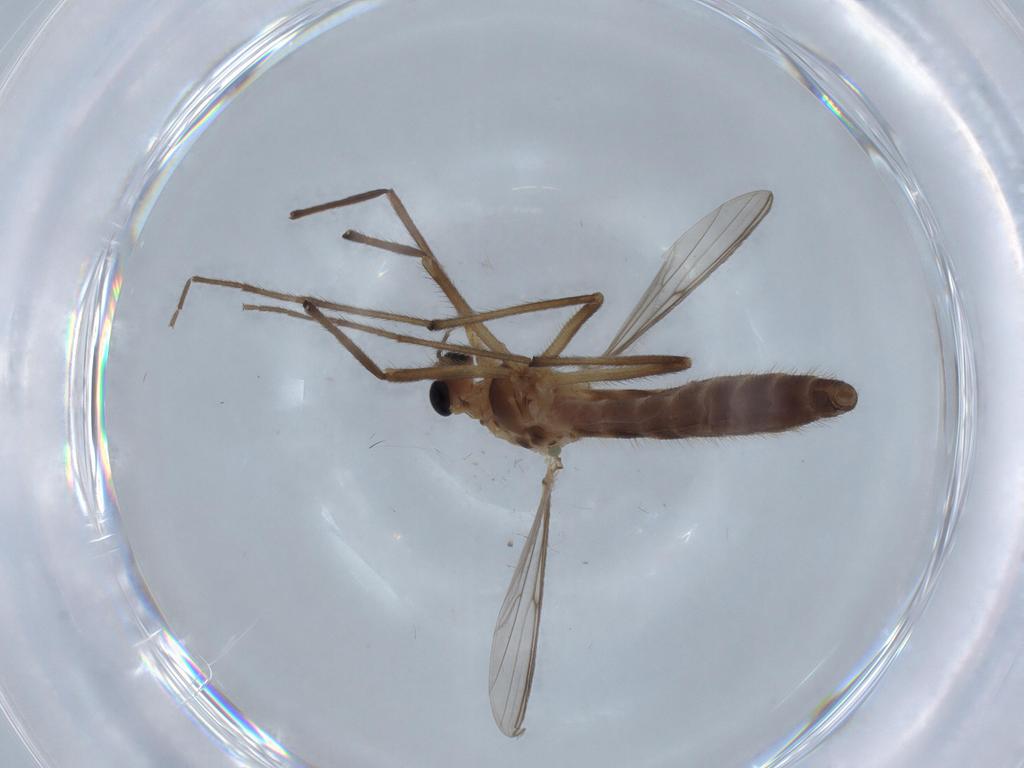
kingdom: Animalia
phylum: Arthropoda
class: Insecta
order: Diptera
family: Chironomidae
